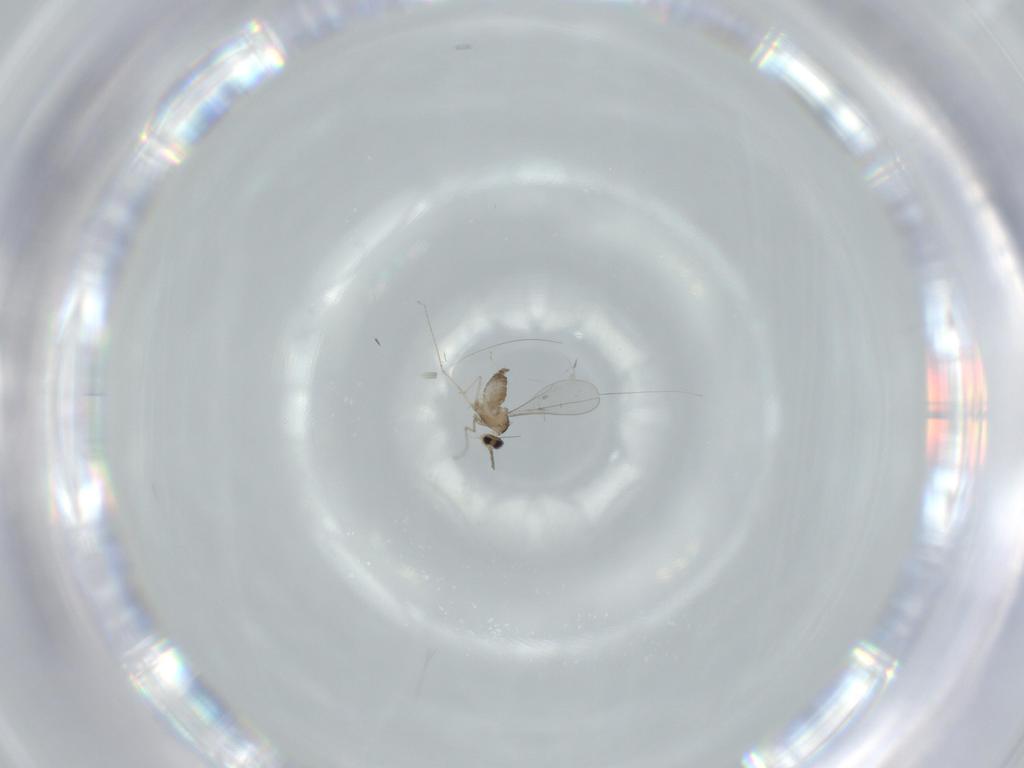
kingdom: Animalia
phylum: Arthropoda
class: Insecta
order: Diptera
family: Cecidomyiidae
